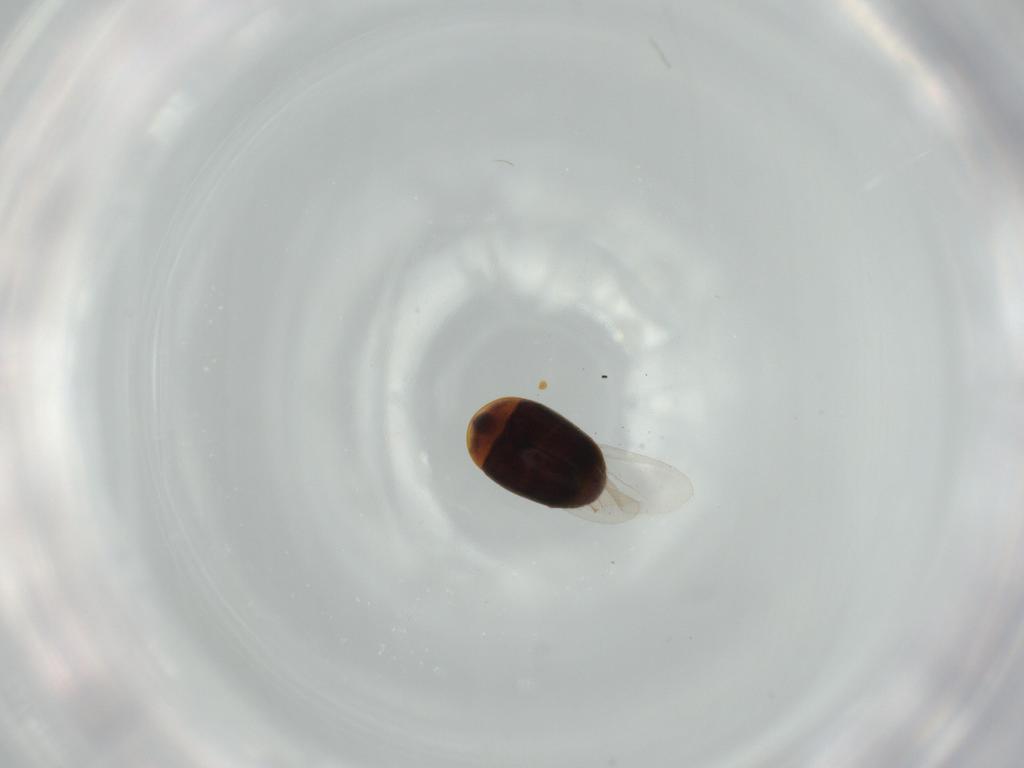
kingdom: Animalia
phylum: Arthropoda
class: Insecta
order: Coleoptera
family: Corylophidae
